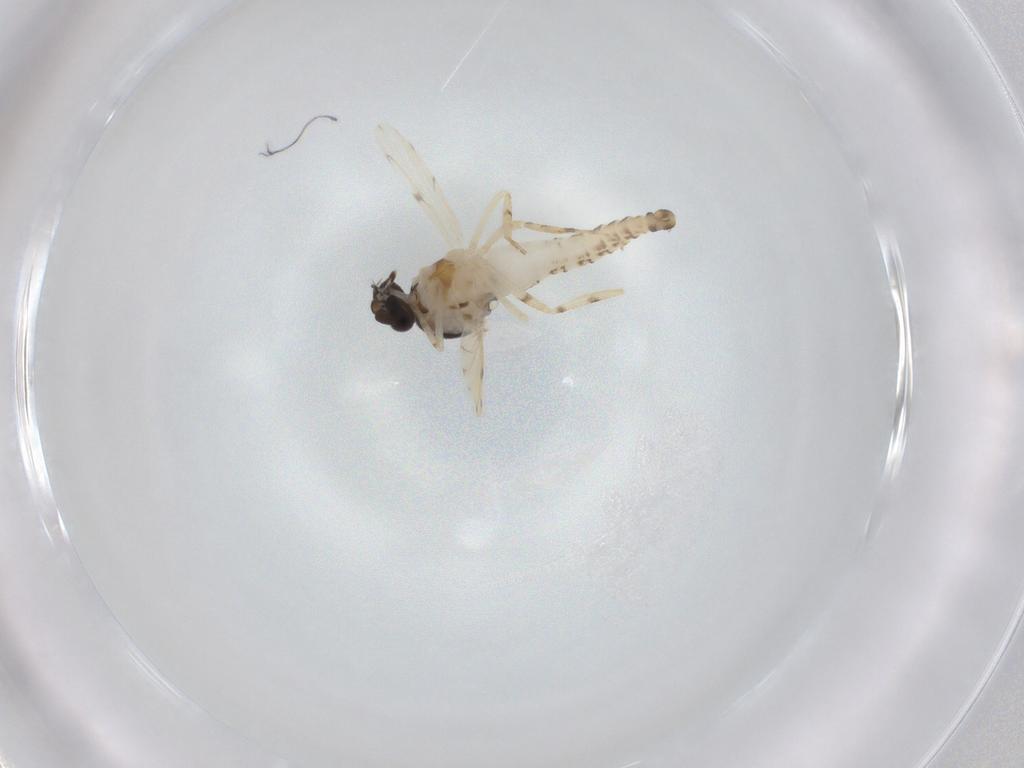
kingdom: Animalia
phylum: Arthropoda
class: Insecta
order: Diptera
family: Ceratopogonidae
